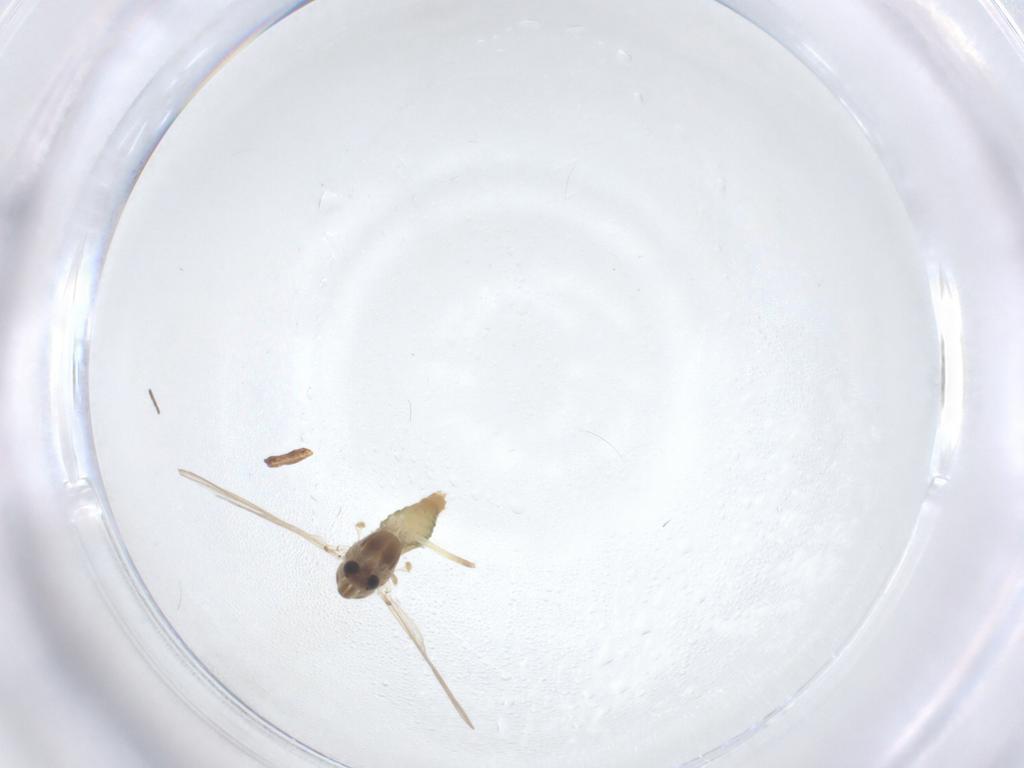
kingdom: Animalia
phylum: Arthropoda
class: Insecta
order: Diptera
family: Chironomidae
